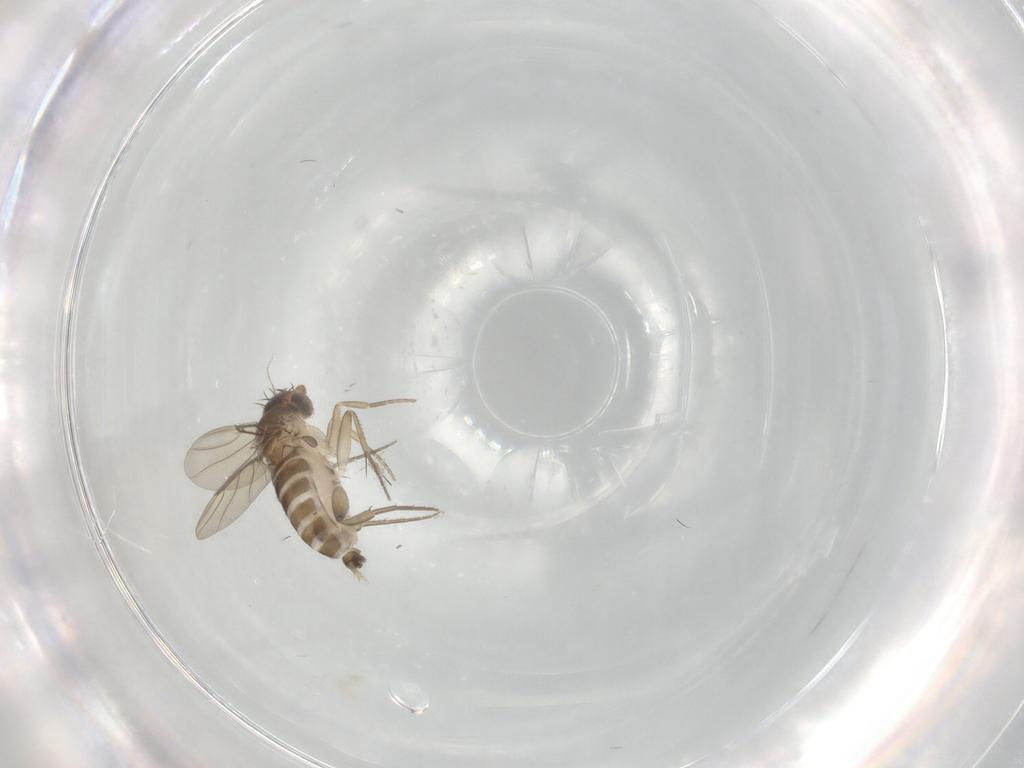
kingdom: Animalia
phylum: Arthropoda
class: Insecta
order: Diptera
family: Phoridae
